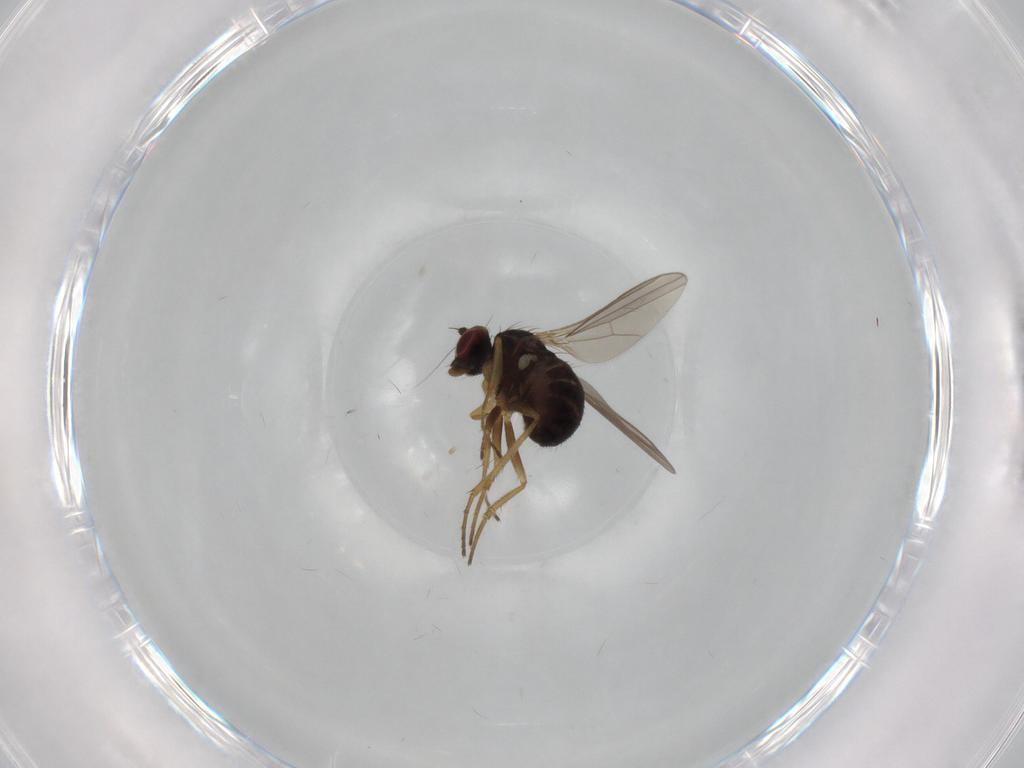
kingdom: Animalia
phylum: Arthropoda
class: Insecta
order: Diptera
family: Dolichopodidae
